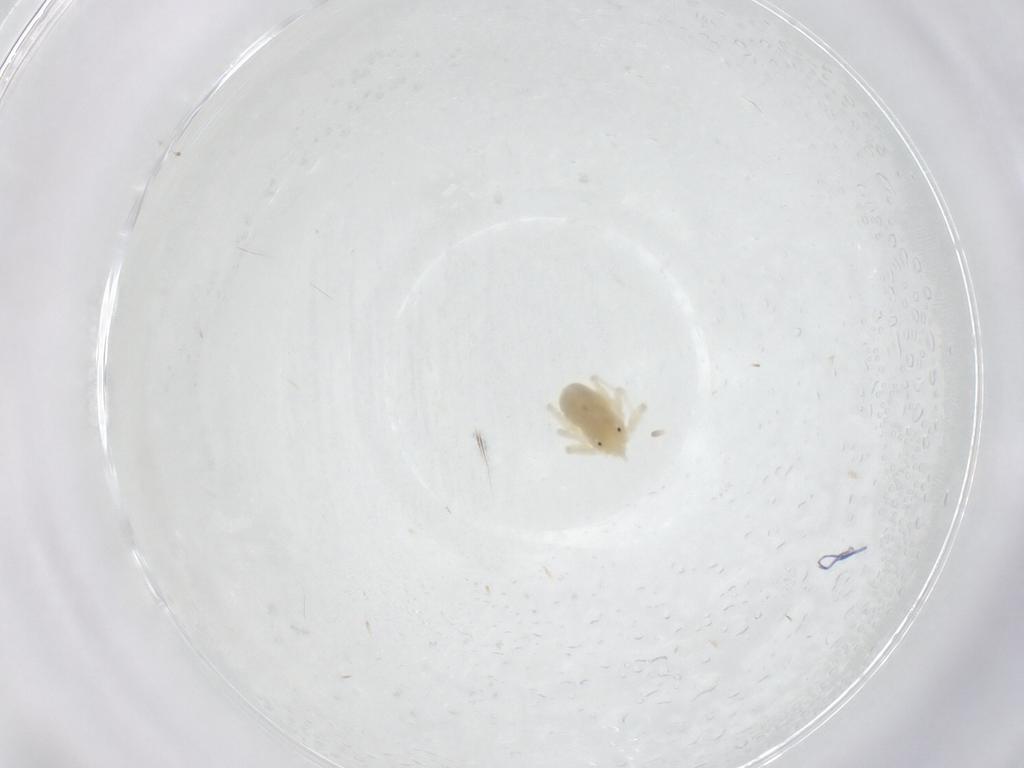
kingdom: Animalia
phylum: Arthropoda
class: Arachnida
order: Trombidiformes
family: Anystidae
